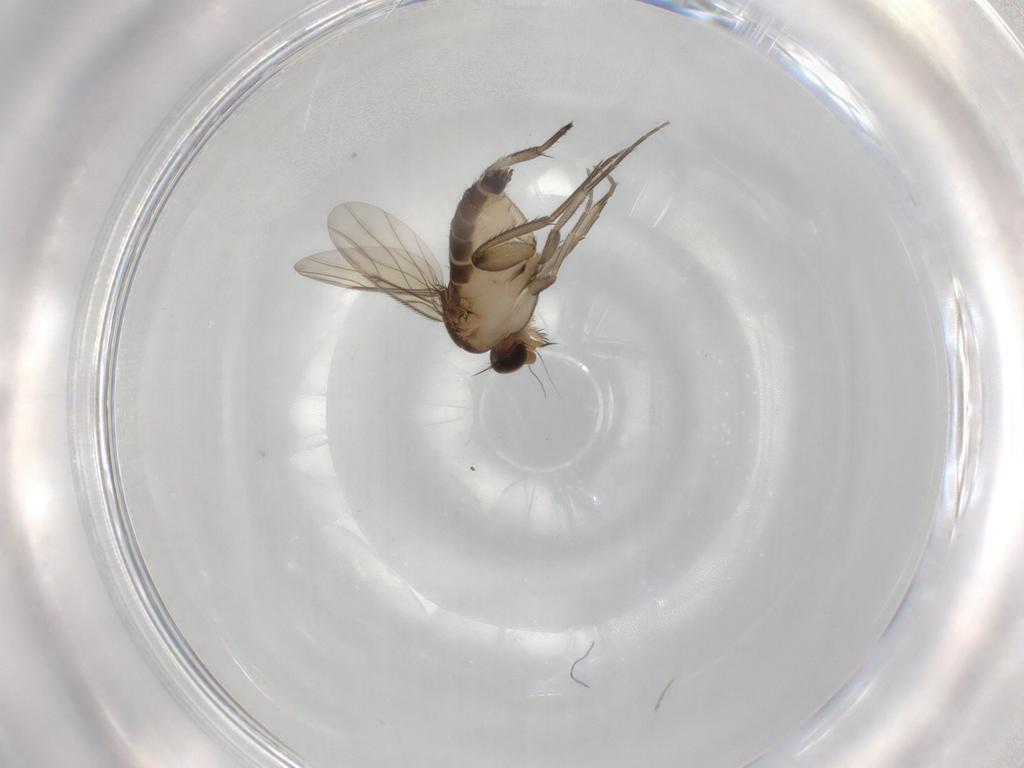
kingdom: Animalia
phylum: Arthropoda
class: Insecta
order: Diptera
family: Phoridae
